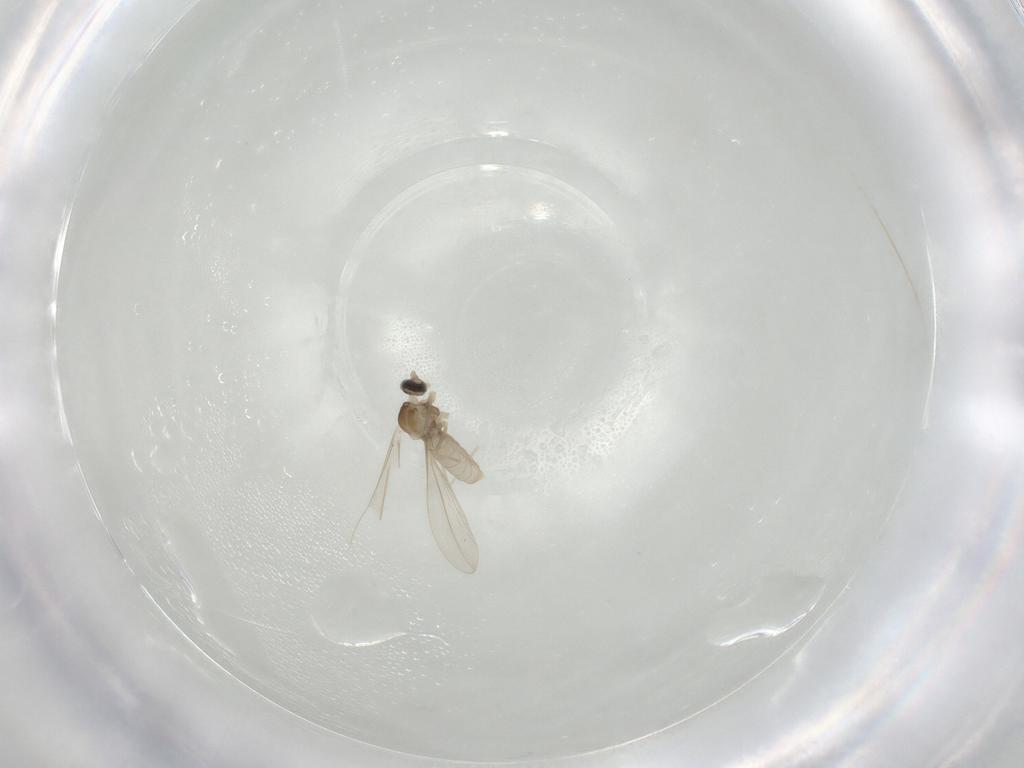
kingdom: Animalia
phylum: Arthropoda
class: Insecta
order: Diptera
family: Cecidomyiidae
